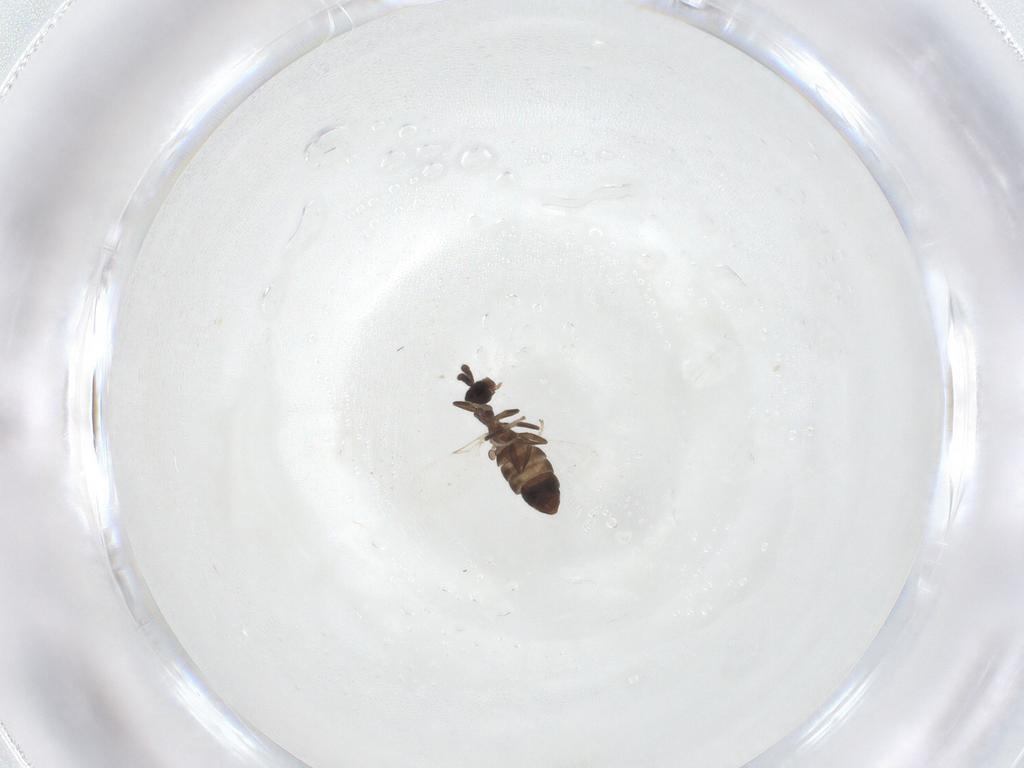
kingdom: Animalia
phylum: Arthropoda
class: Insecta
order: Diptera
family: Scatopsidae
